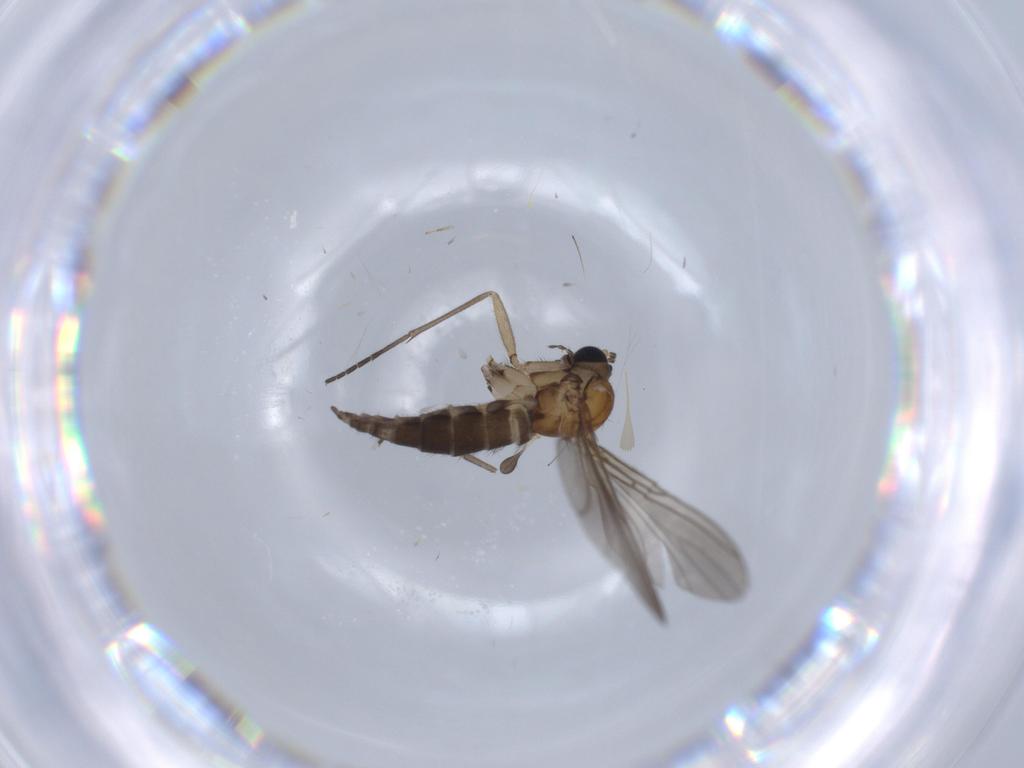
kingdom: Animalia
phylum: Arthropoda
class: Insecta
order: Diptera
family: Sciaridae
